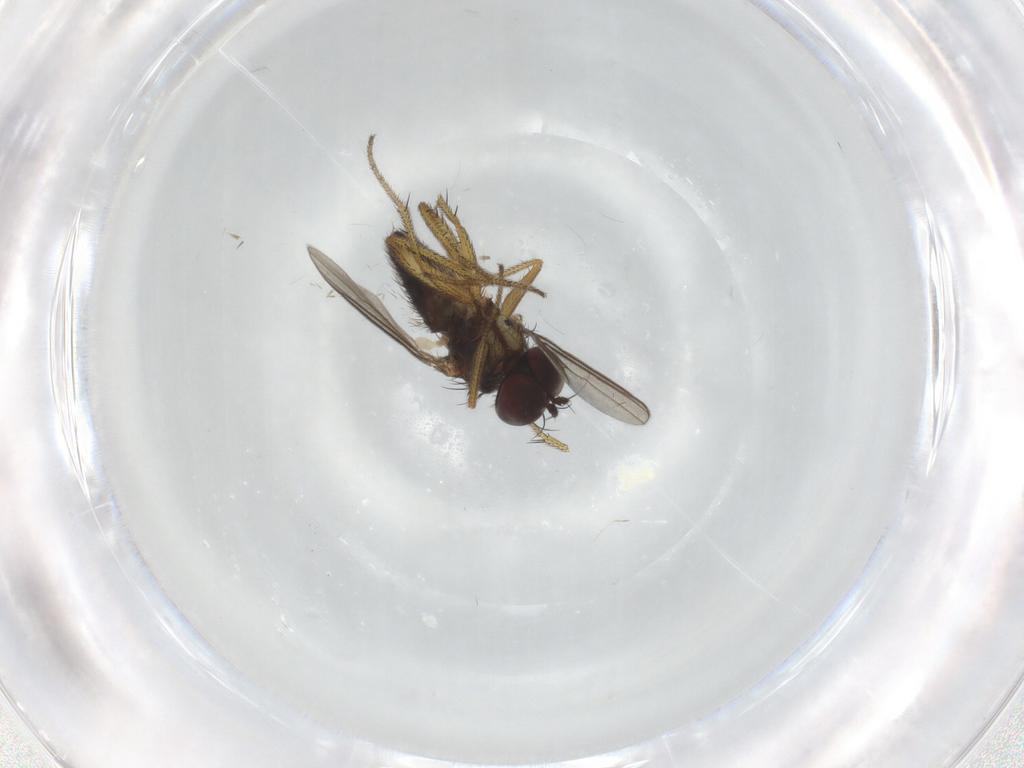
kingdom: Animalia
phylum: Arthropoda
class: Insecta
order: Diptera
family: Dolichopodidae
